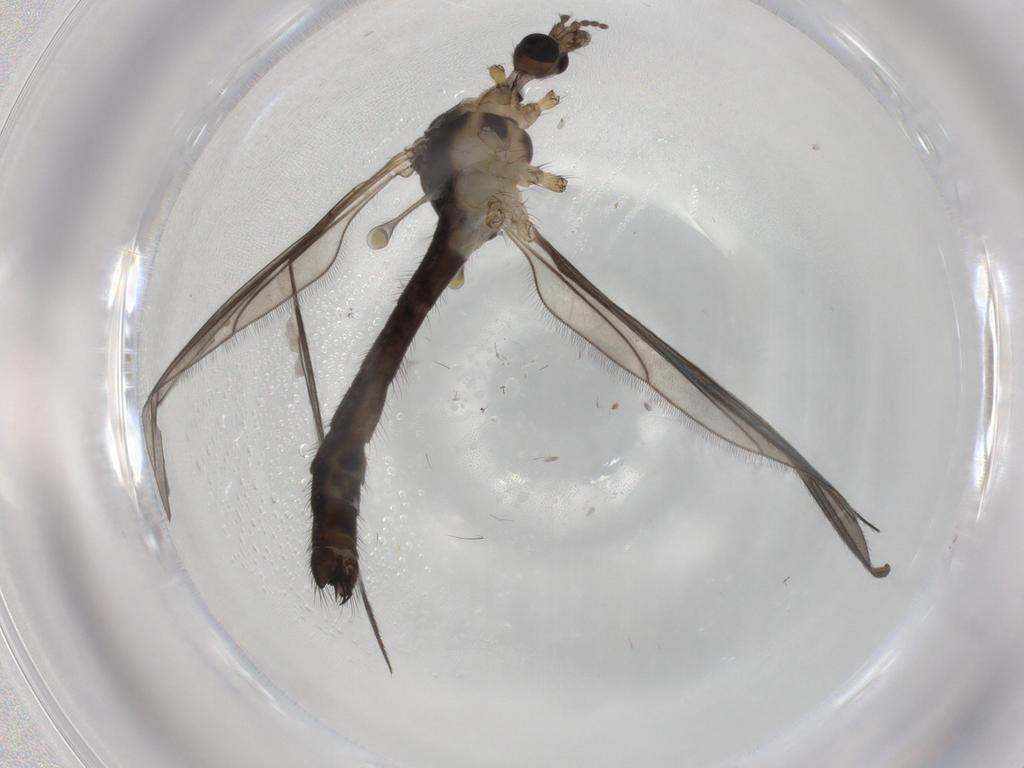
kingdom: Animalia
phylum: Arthropoda
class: Insecta
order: Diptera
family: Limoniidae
